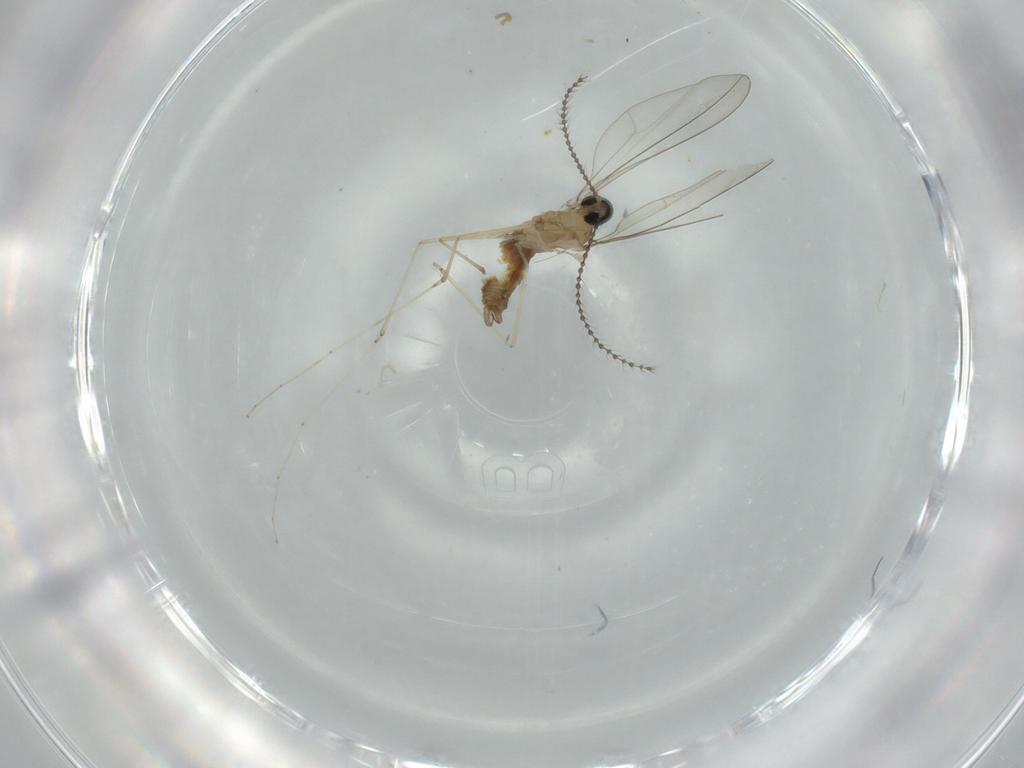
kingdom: Animalia
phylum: Arthropoda
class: Insecta
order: Diptera
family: Cecidomyiidae
